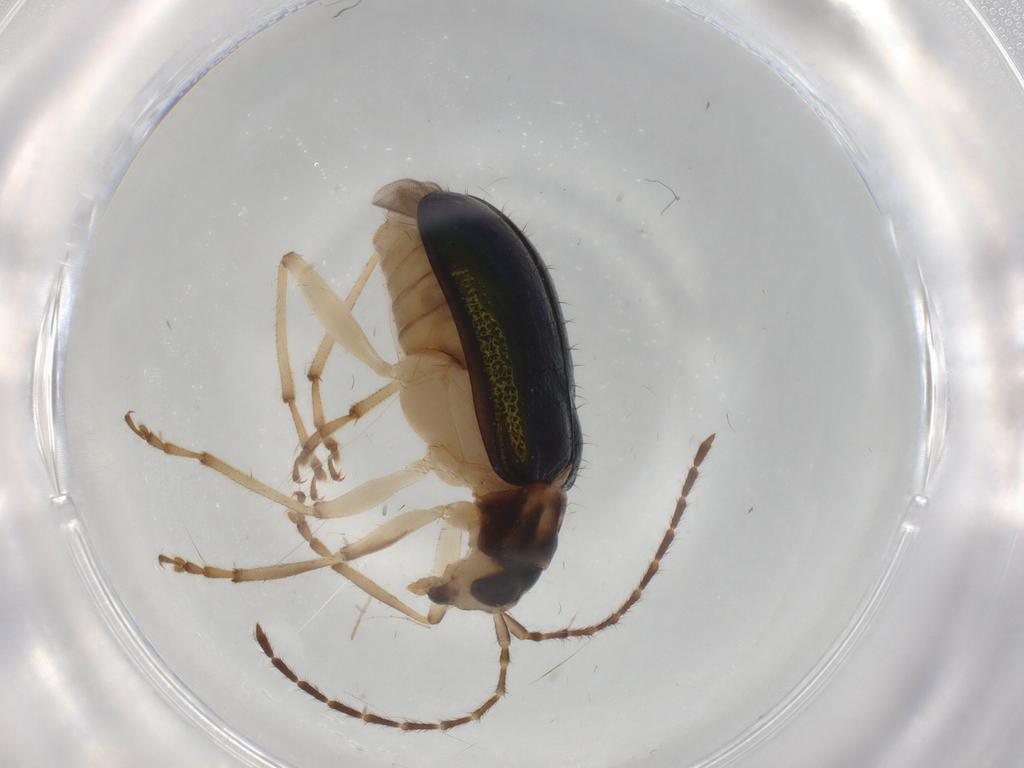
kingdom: Animalia
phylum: Arthropoda
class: Insecta
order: Coleoptera
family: Chrysomelidae
